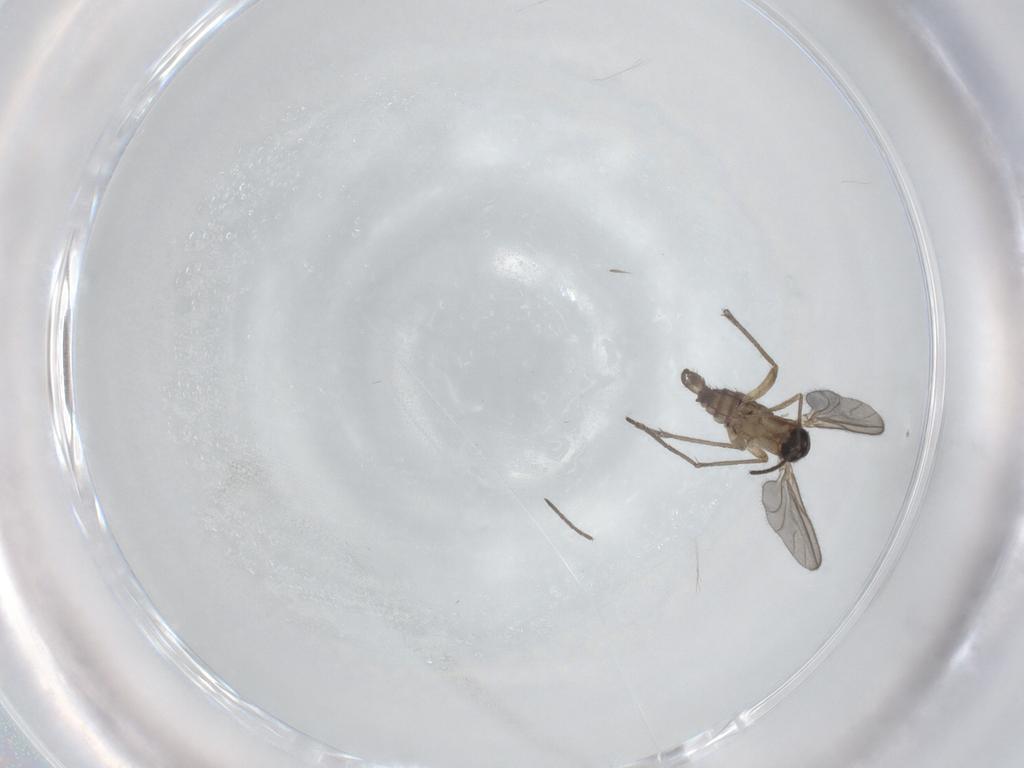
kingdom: Animalia
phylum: Arthropoda
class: Insecta
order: Diptera
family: Sciaridae
